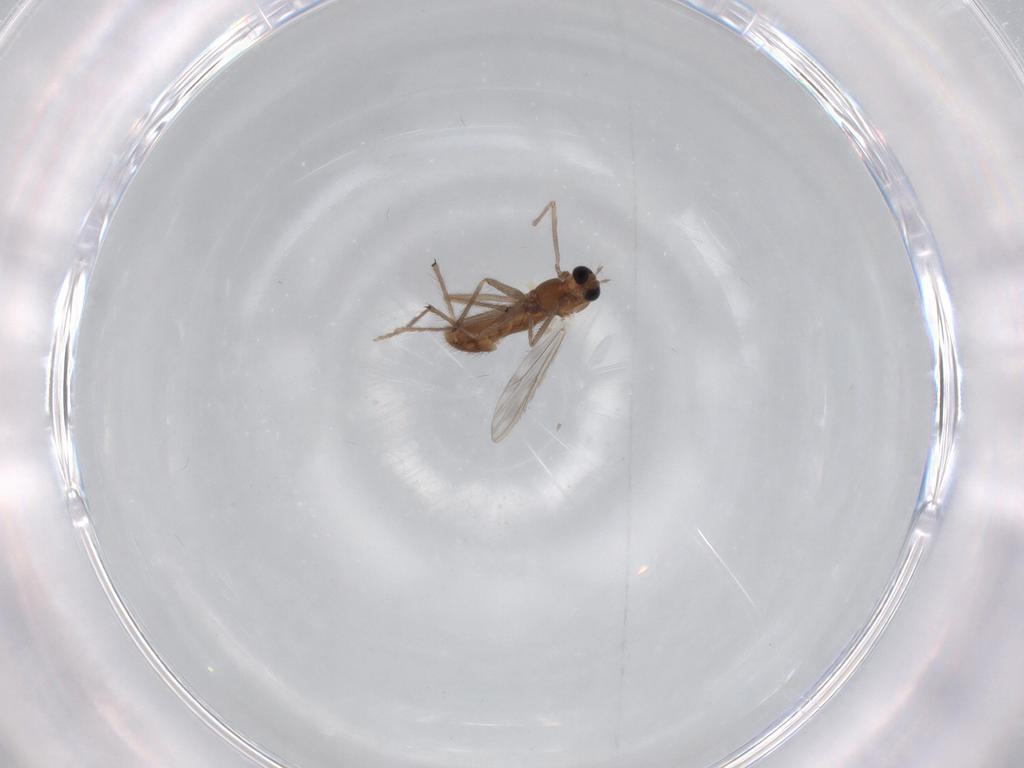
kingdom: Animalia
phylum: Arthropoda
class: Insecta
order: Diptera
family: Chironomidae
